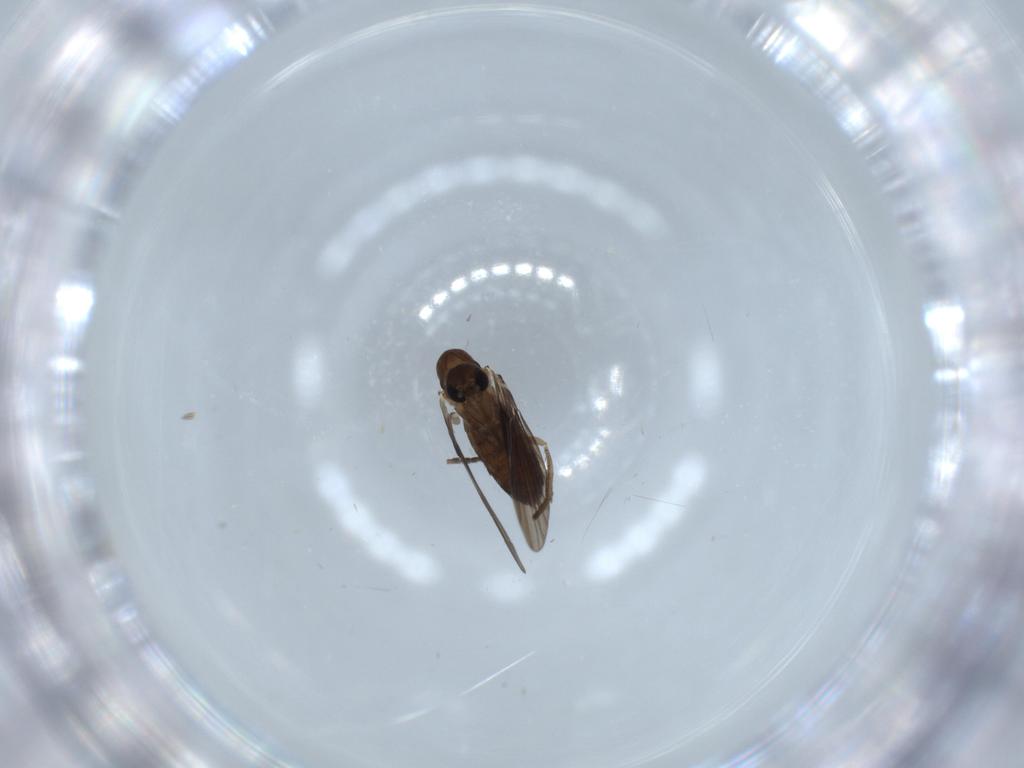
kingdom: Animalia
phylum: Arthropoda
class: Insecta
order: Diptera
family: Psychodidae
